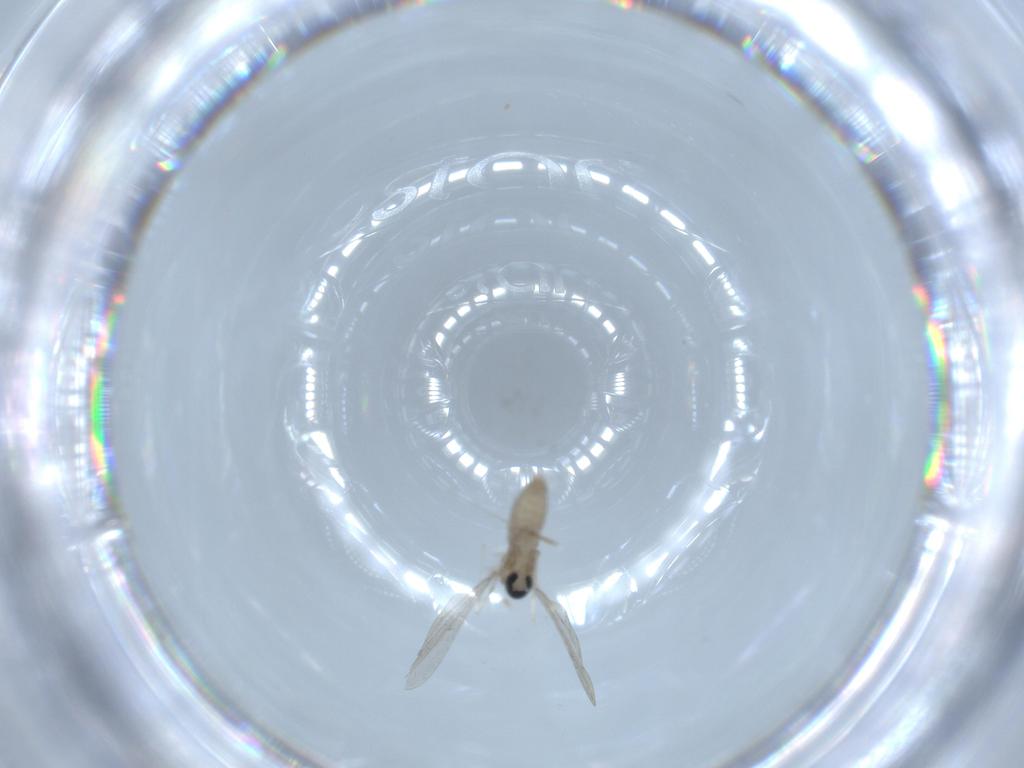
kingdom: Animalia
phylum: Arthropoda
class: Insecta
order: Diptera
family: Cecidomyiidae
